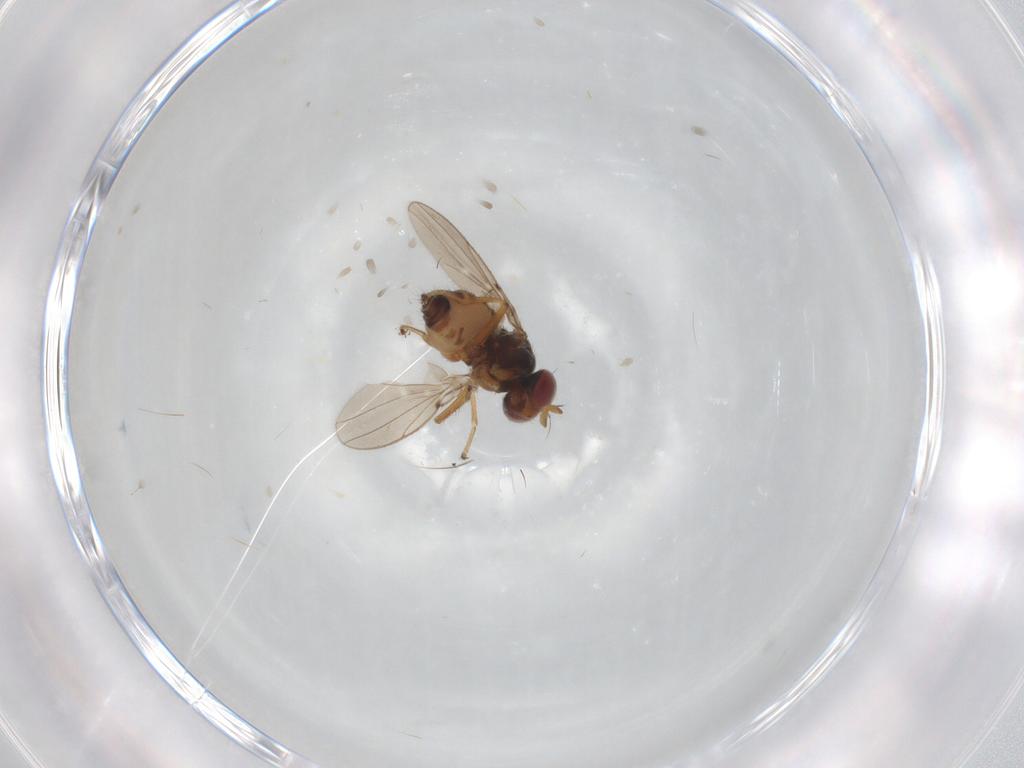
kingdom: Animalia
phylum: Arthropoda
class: Insecta
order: Diptera
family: Ephydridae
